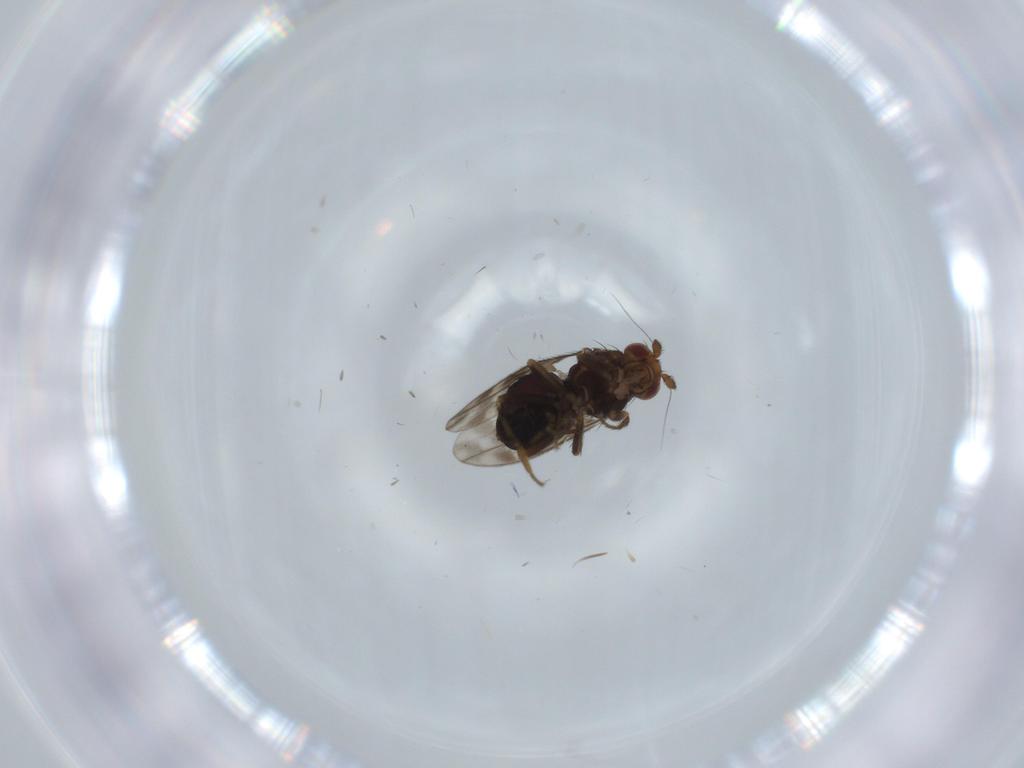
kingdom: Animalia
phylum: Arthropoda
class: Insecta
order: Diptera
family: Sphaeroceridae
